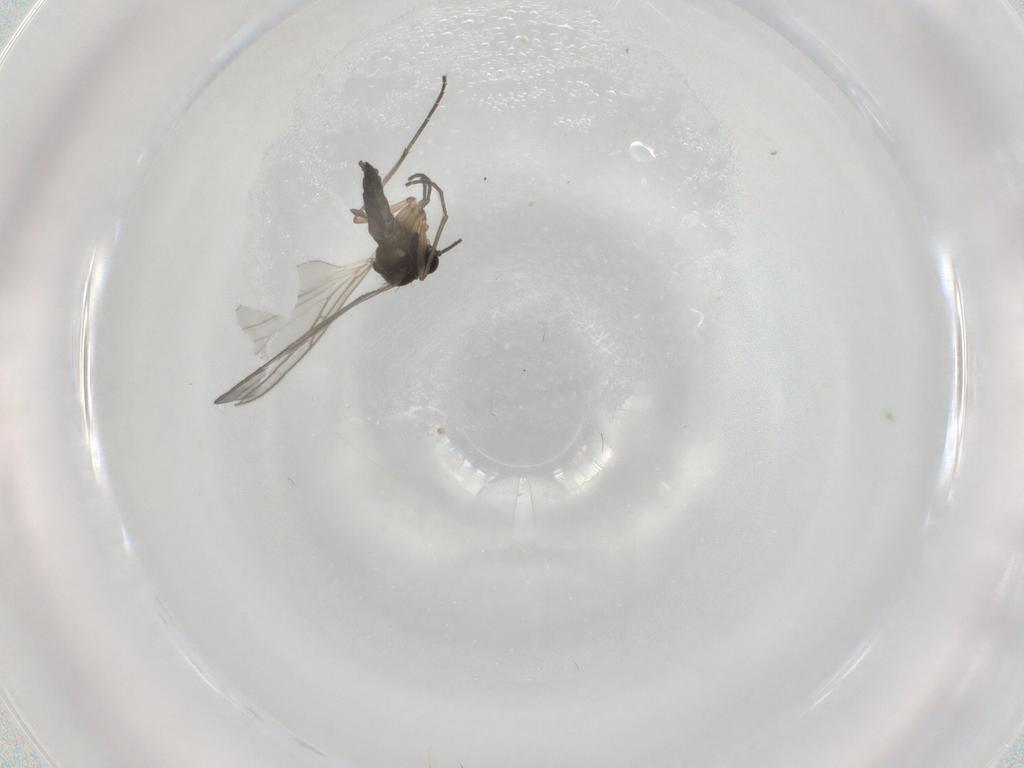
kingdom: Animalia
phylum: Arthropoda
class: Insecta
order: Diptera
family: Sciaridae
